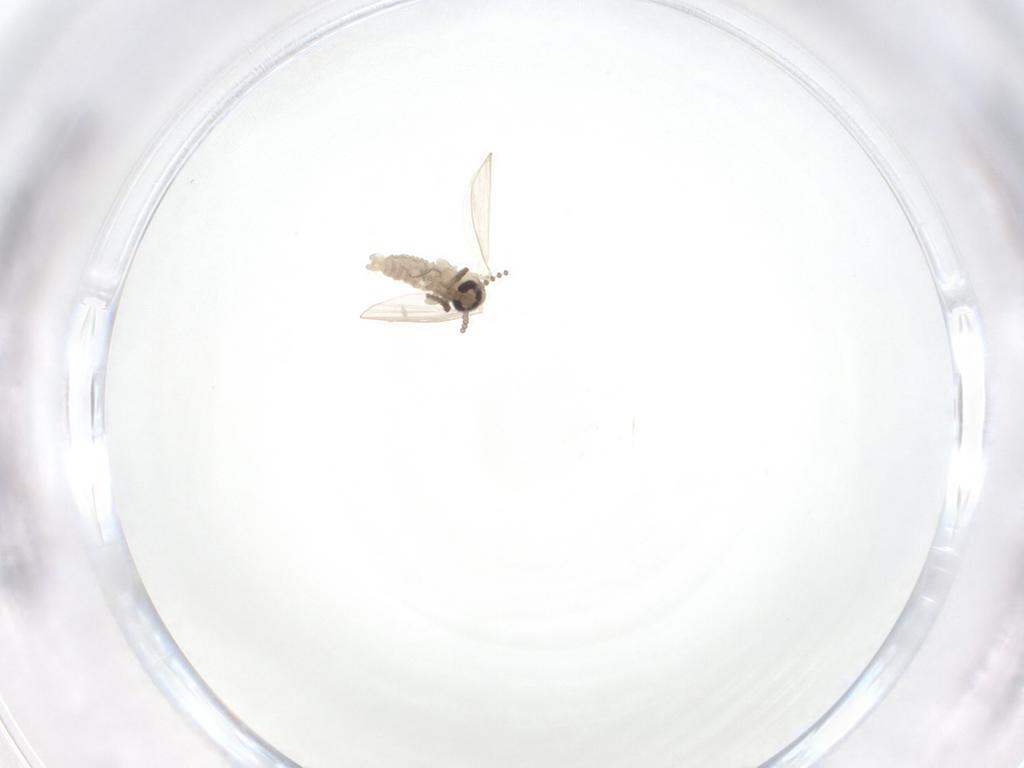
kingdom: Animalia
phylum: Arthropoda
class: Insecta
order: Diptera
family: Psychodidae
